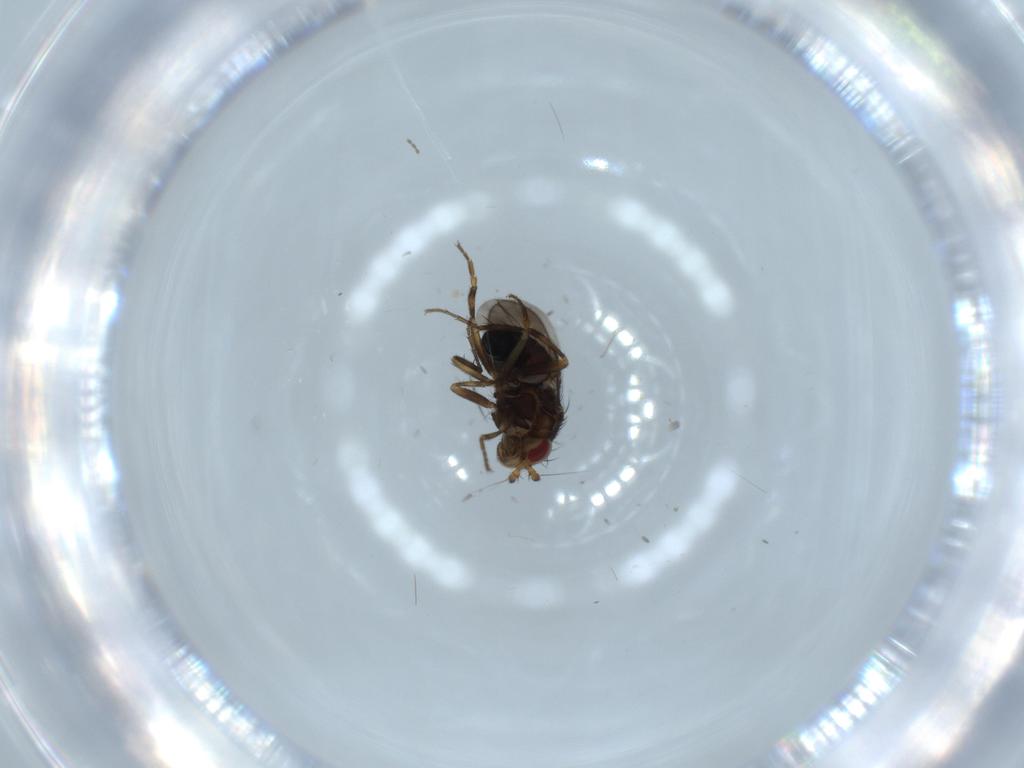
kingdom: Animalia
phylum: Arthropoda
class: Insecta
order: Diptera
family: Sphaeroceridae
